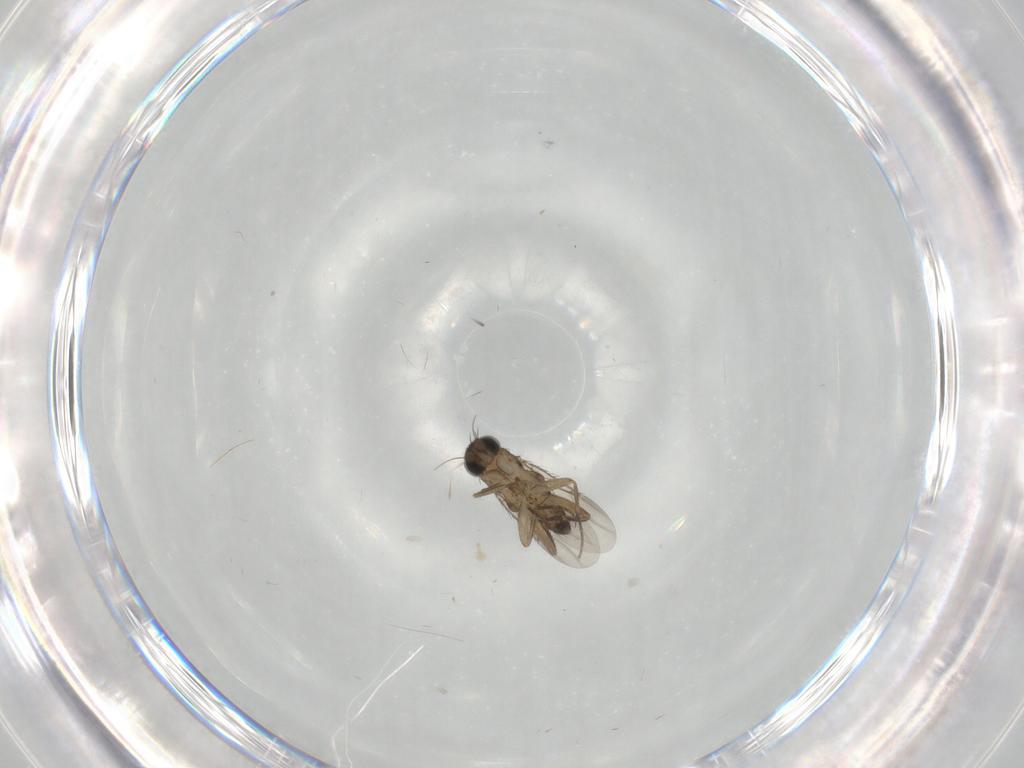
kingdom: Animalia
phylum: Arthropoda
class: Insecta
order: Diptera
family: Phoridae
